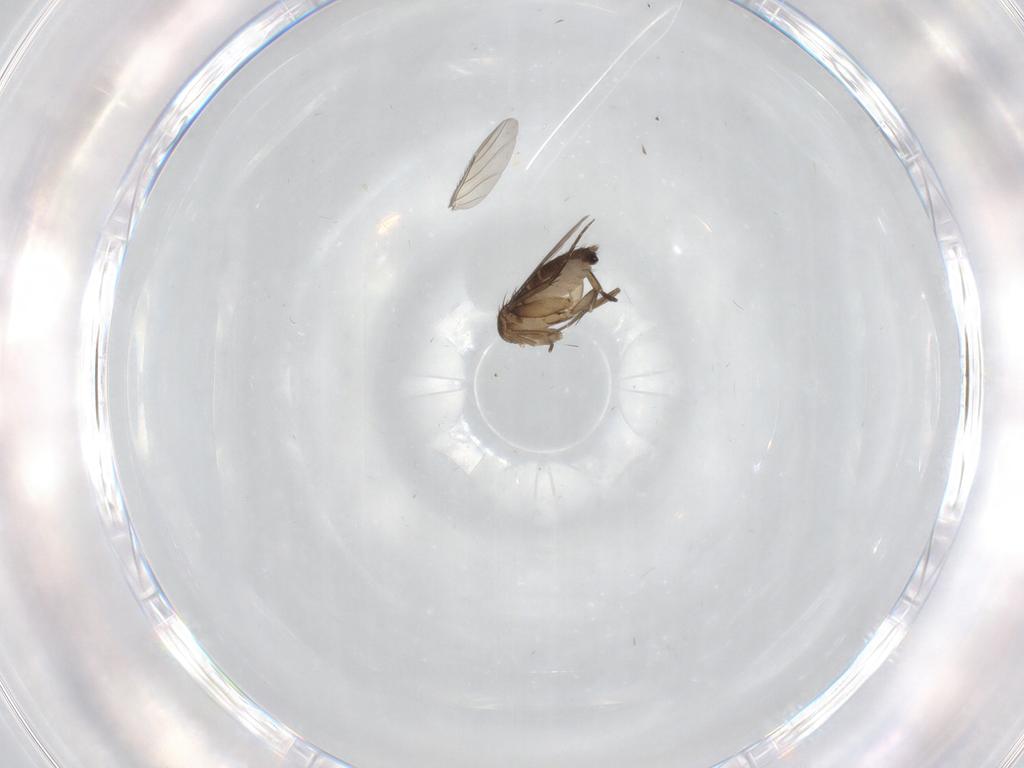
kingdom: Animalia
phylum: Arthropoda
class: Insecta
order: Diptera
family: Phoridae
